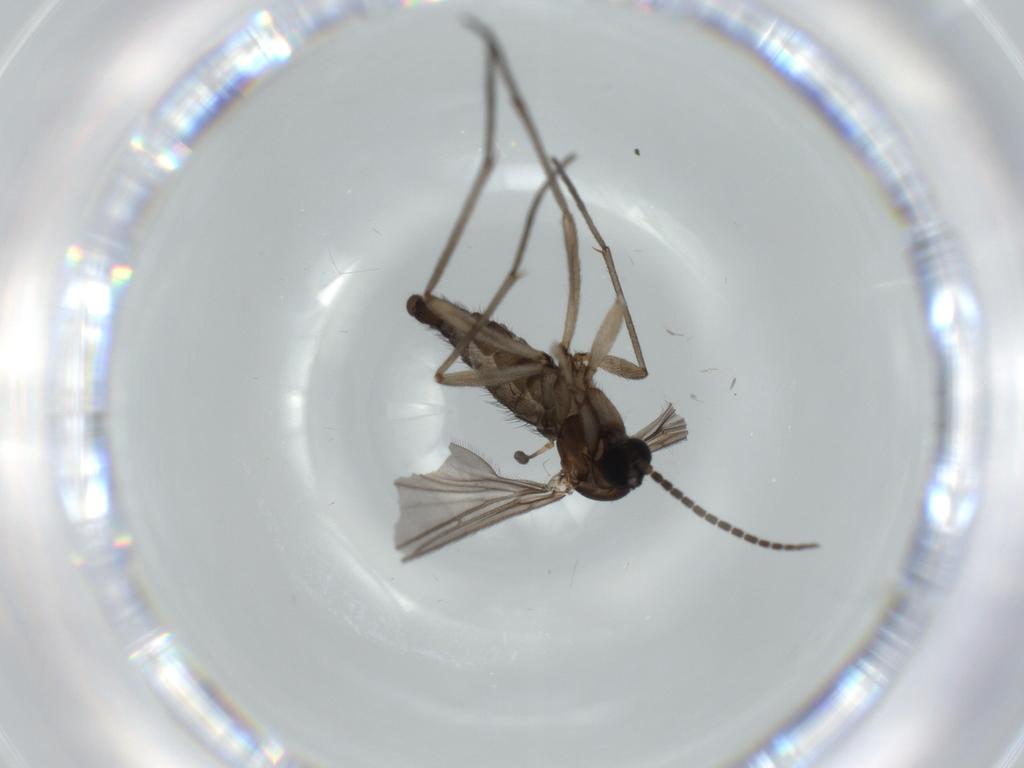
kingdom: Animalia
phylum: Arthropoda
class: Insecta
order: Diptera
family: Sciaridae
